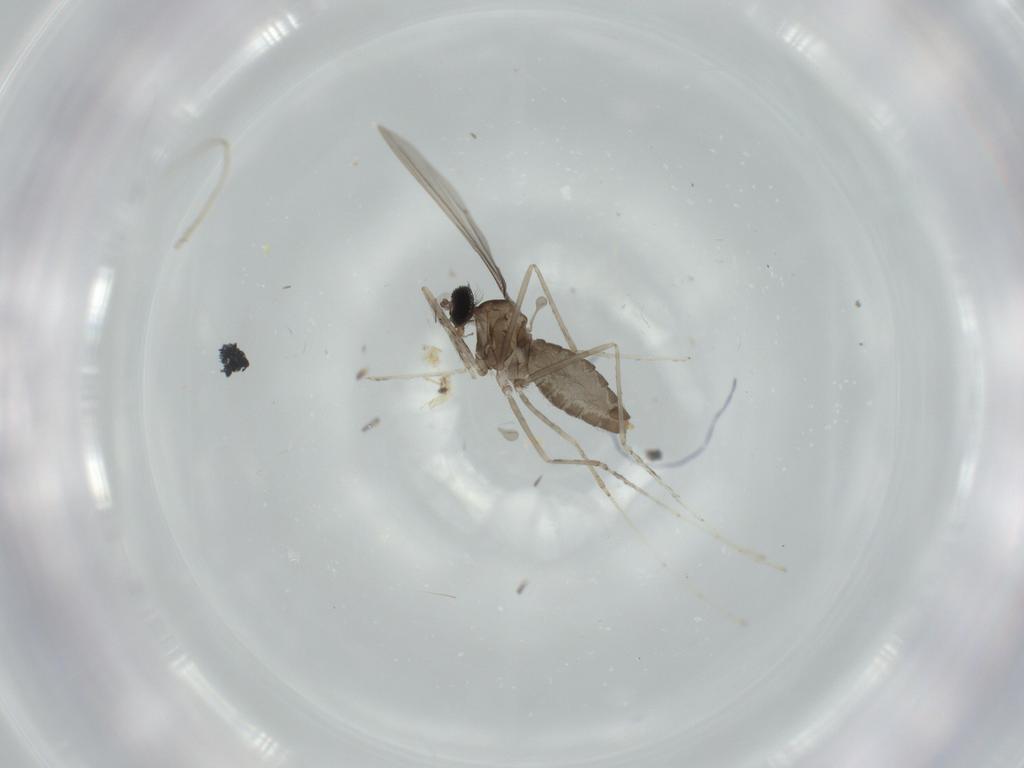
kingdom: Animalia
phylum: Arthropoda
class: Insecta
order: Diptera
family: Cecidomyiidae
